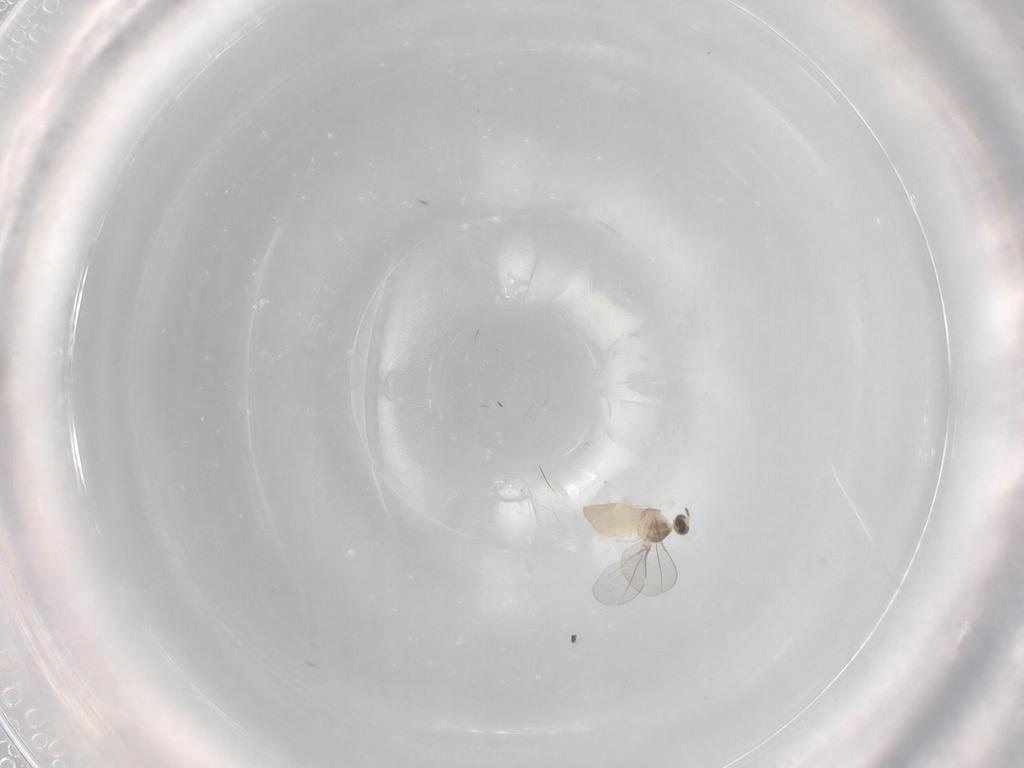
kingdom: Animalia
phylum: Arthropoda
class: Insecta
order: Diptera
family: Cecidomyiidae
